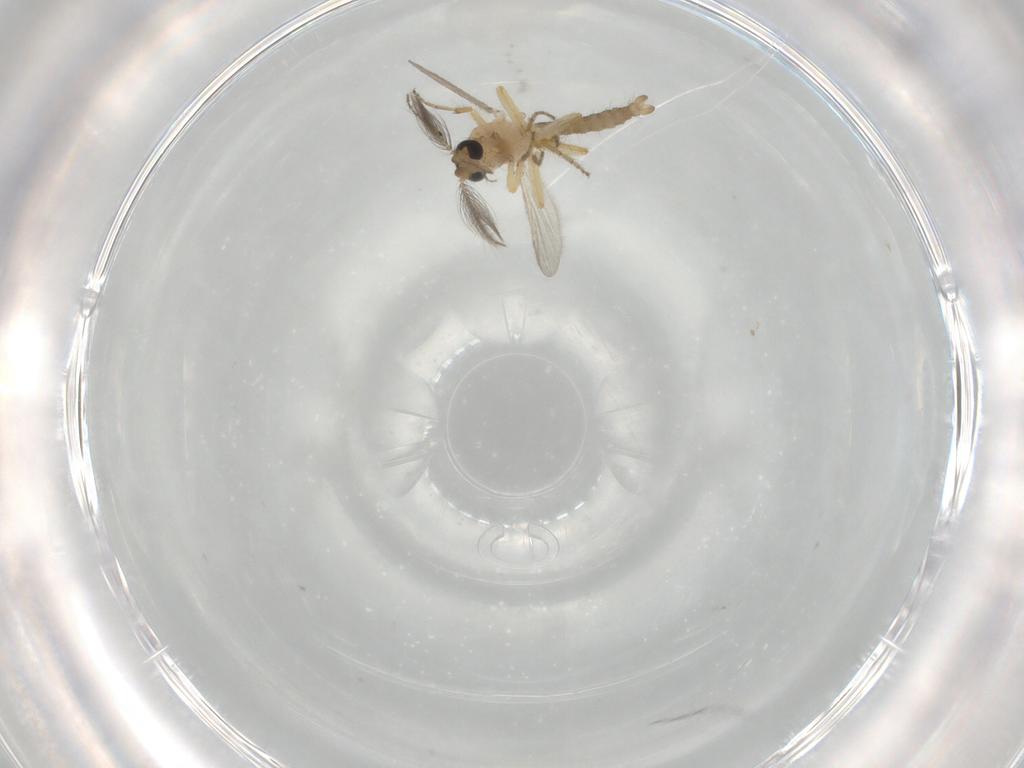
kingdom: Animalia
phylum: Arthropoda
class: Insecta
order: Diptera
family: Ceratopogonidae
